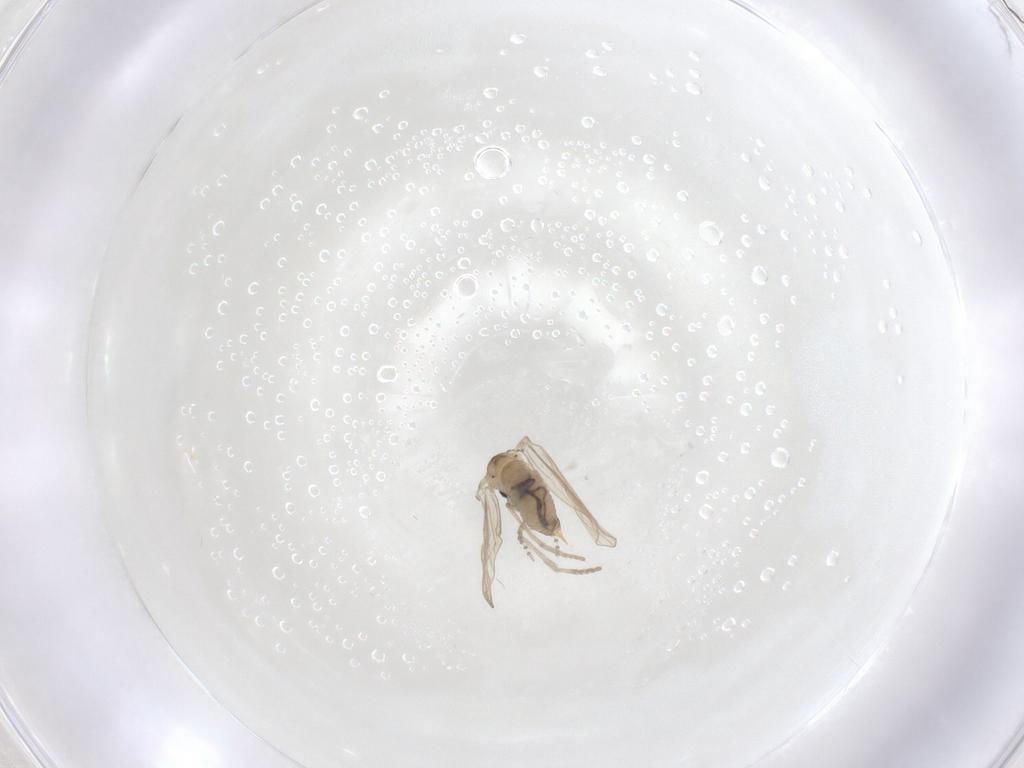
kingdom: Animalia
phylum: Arthropoda
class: Insecta
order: Diptera
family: Psychodidae
